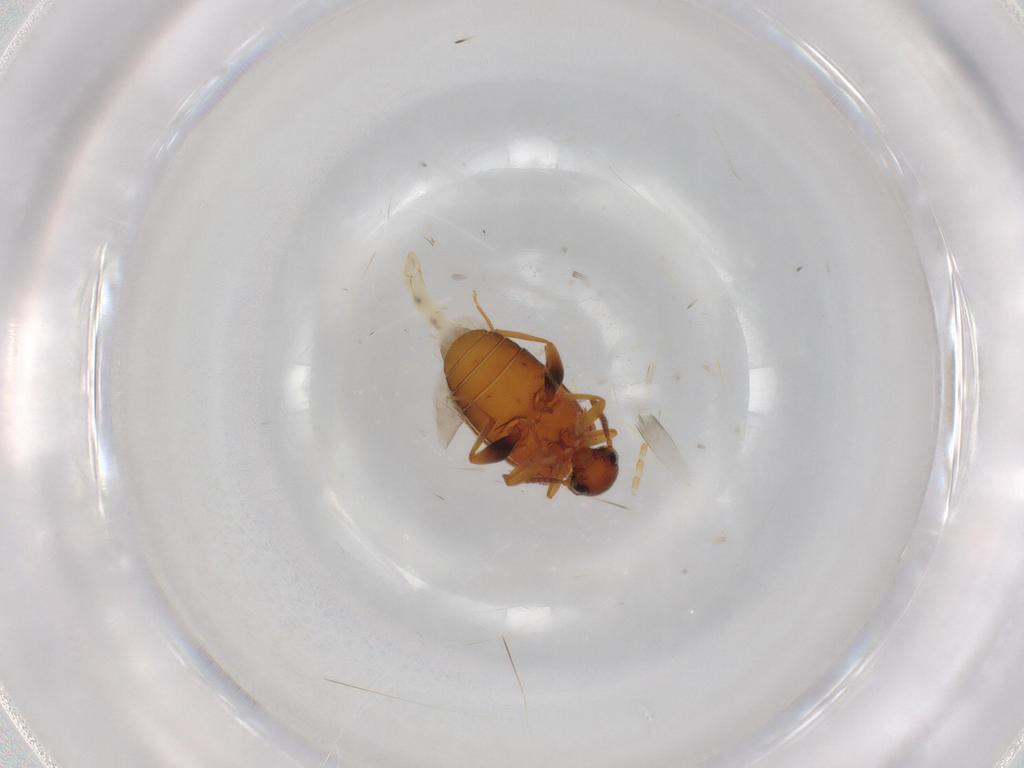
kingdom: Animalia
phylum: Arthropoda
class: Insecta
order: Coleoptera
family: Aderidae
